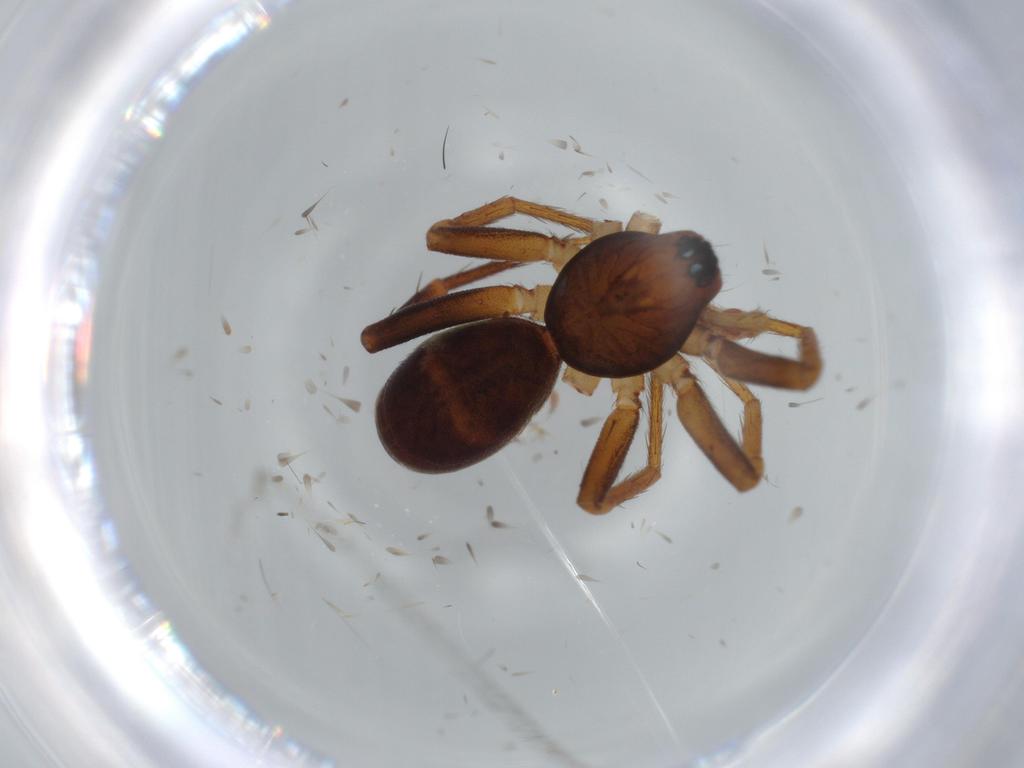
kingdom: Animalia
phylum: Arthropoda
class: Arachnida
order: Araneae
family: Corinnidae
